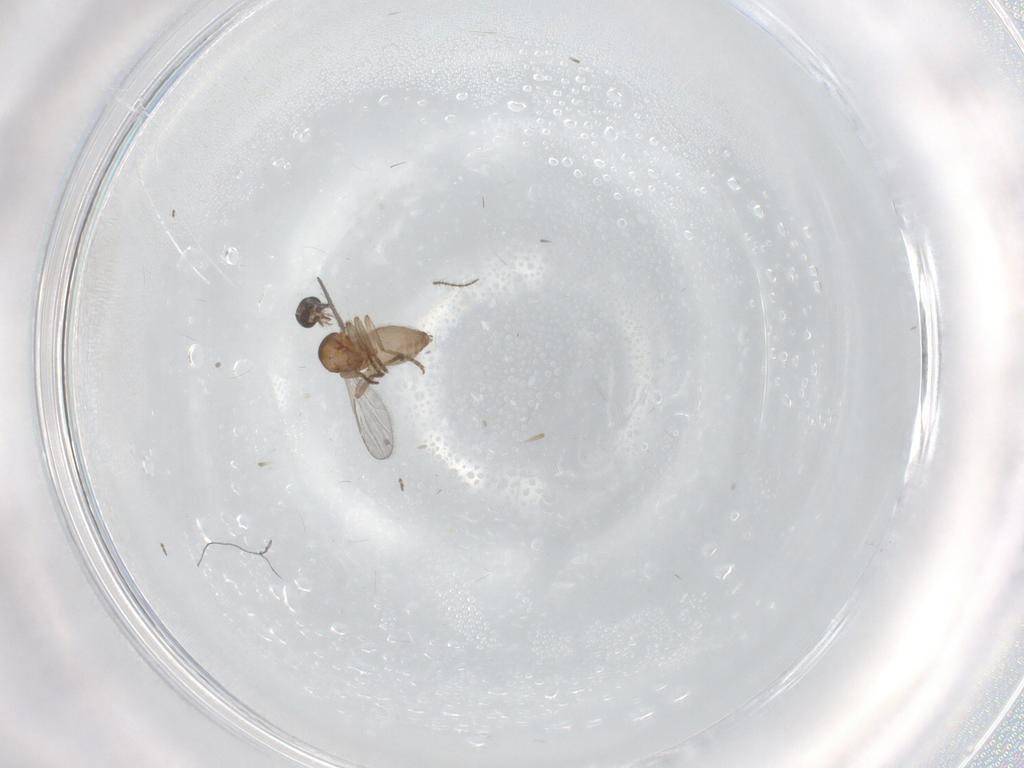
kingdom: Animalia
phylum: Arthropoda
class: Insecta
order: Diptera
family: Ceratopogonidae
